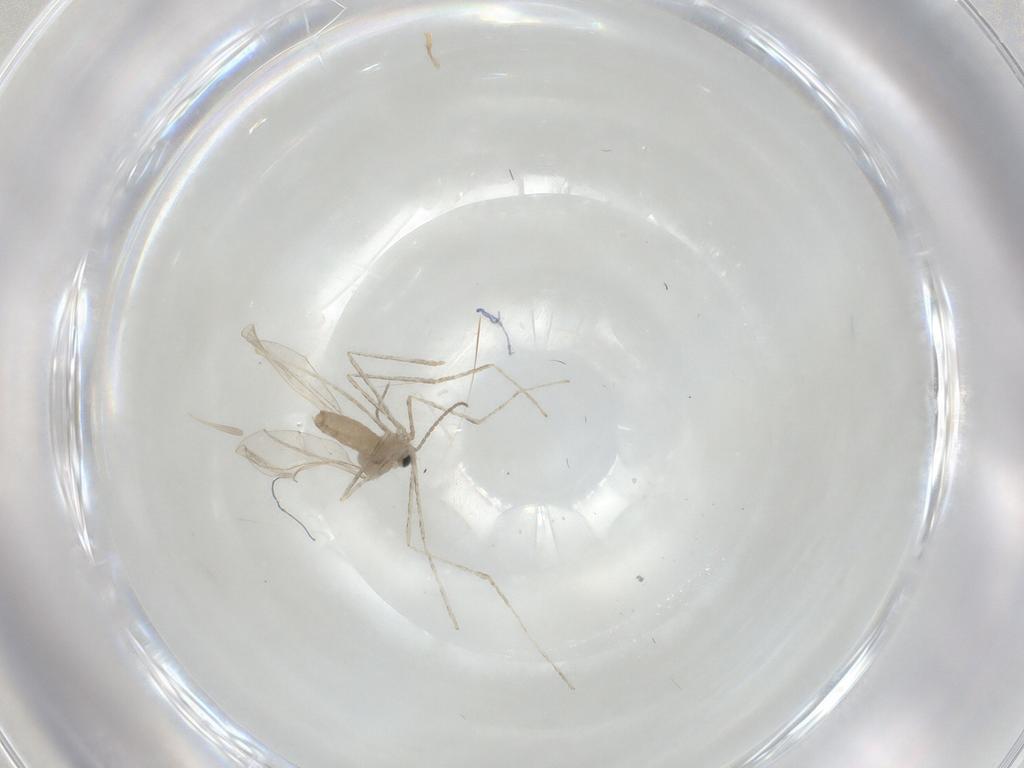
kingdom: Animalia
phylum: Arthropoda
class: Insecta
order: Diptera
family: Cecidomyiidae
